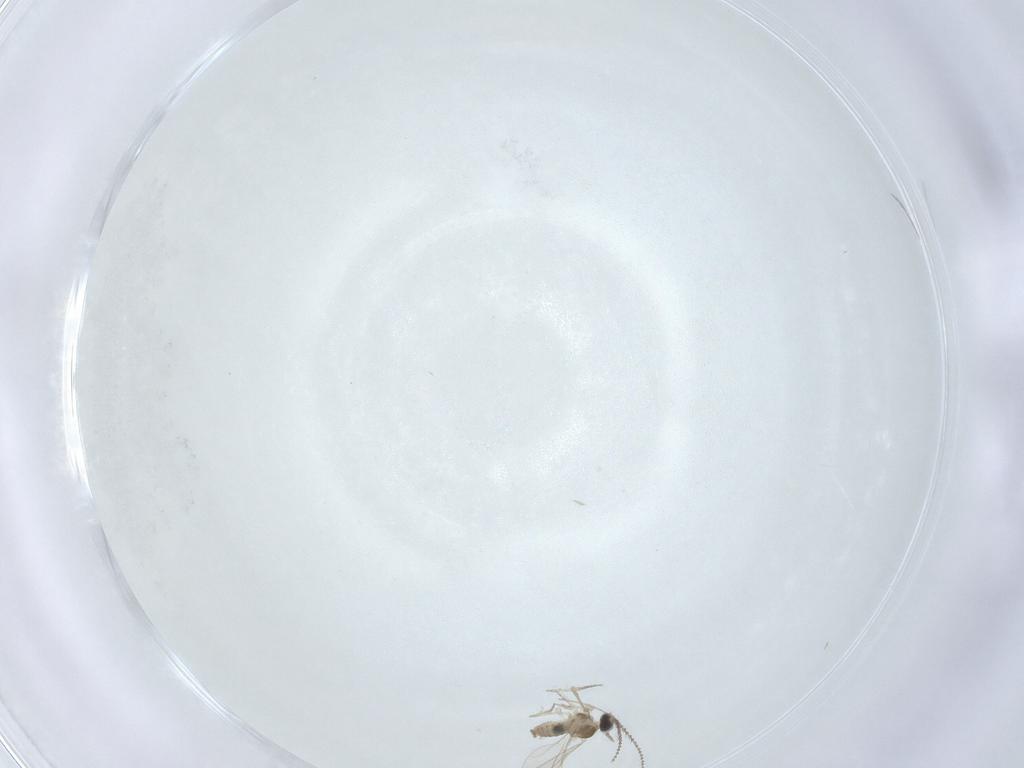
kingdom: Animalia
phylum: Arthropoda
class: Insecta
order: Diptera
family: Cecidomyiidae
